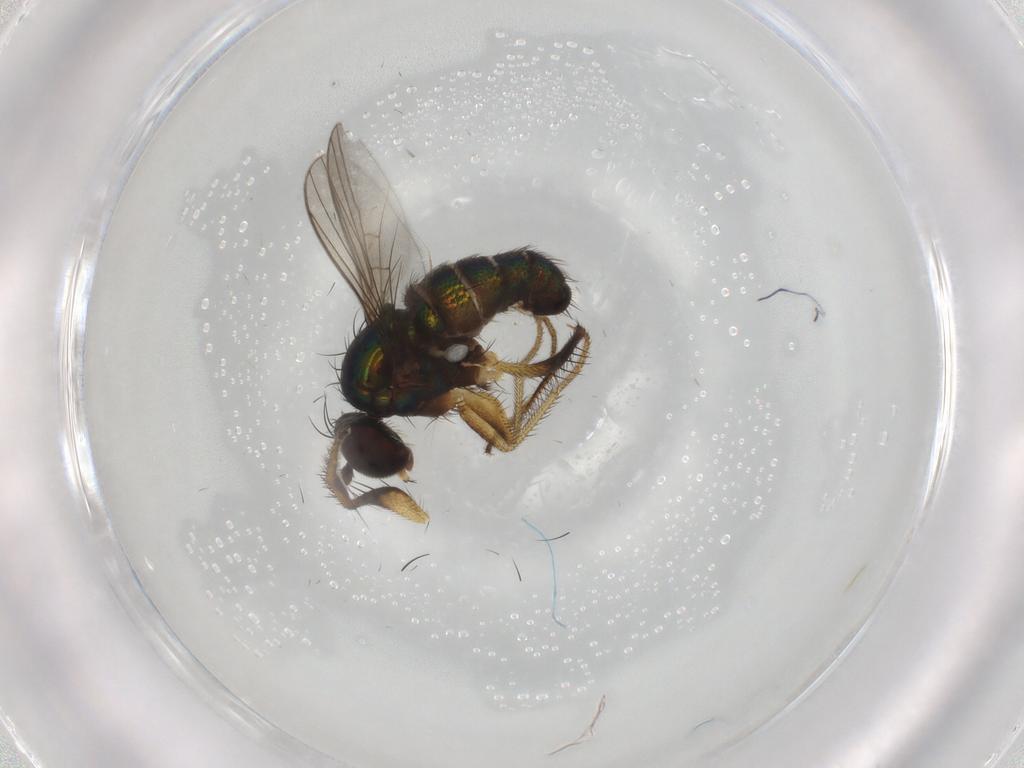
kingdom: Animalia
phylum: Arthropoda
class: Insecta
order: Diptera
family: Dolichopodidae
